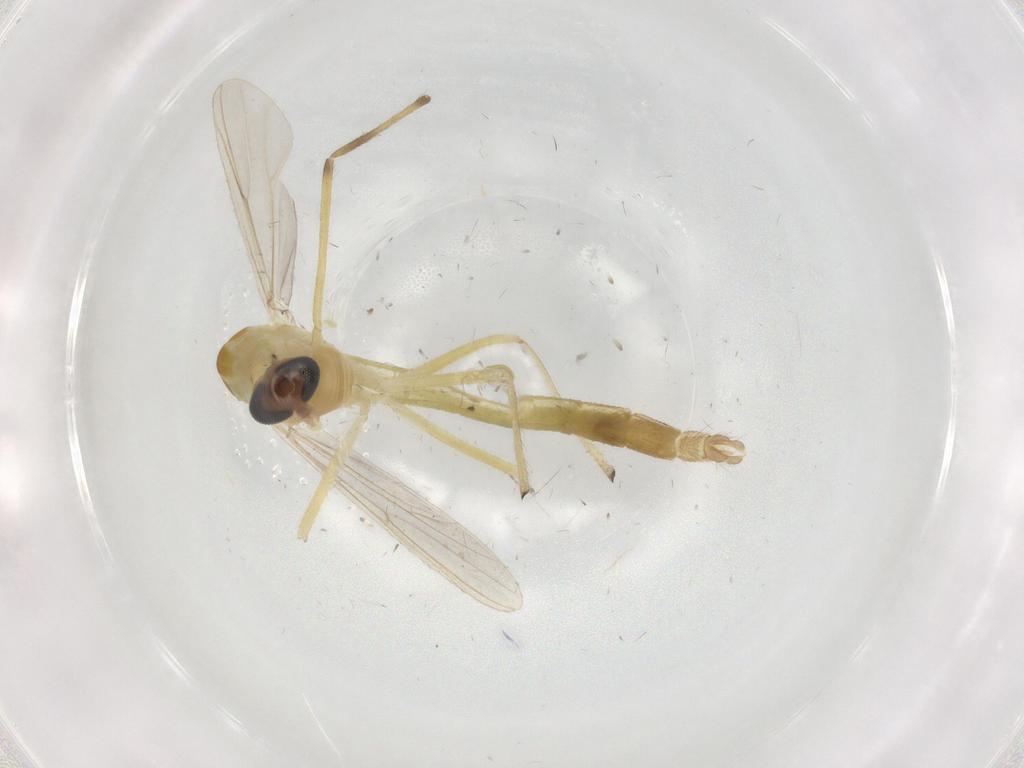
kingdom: Animalia
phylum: Arthropoda
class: Insecta
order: Diptera
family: Chironomidae
